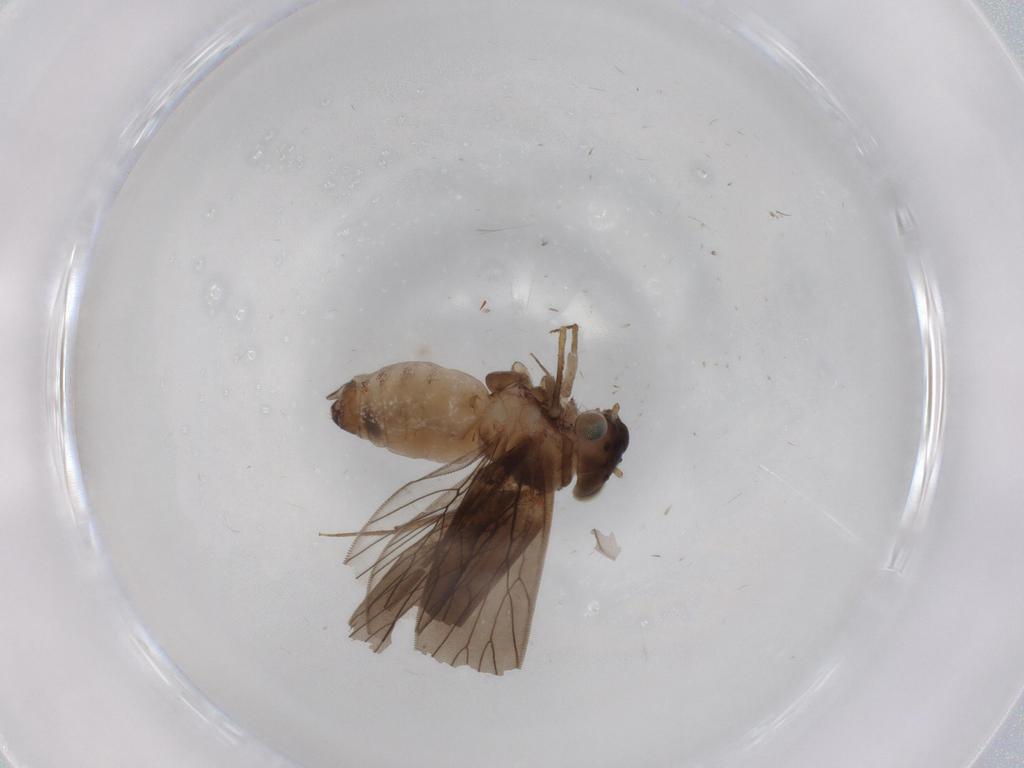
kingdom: Animalia
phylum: Arthropoda
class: Insecta
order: Psocodea
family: Lepidopsocidae
